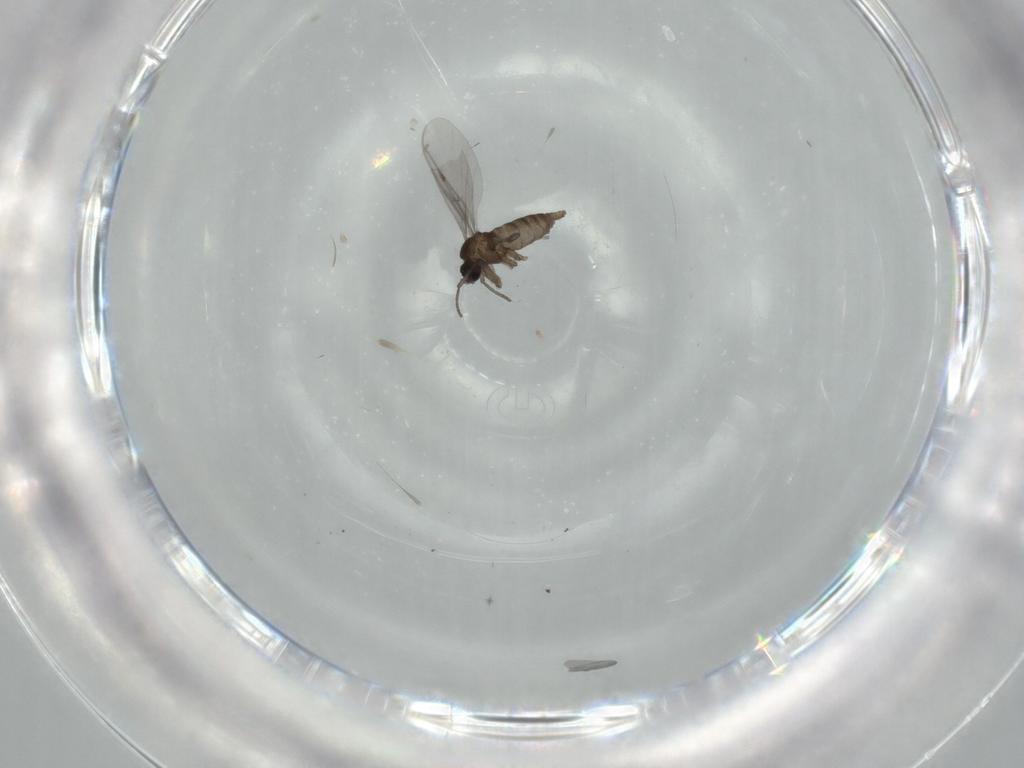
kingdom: Animalia
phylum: Arthropoda
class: Insecta
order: Diptera
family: Sciaridae
